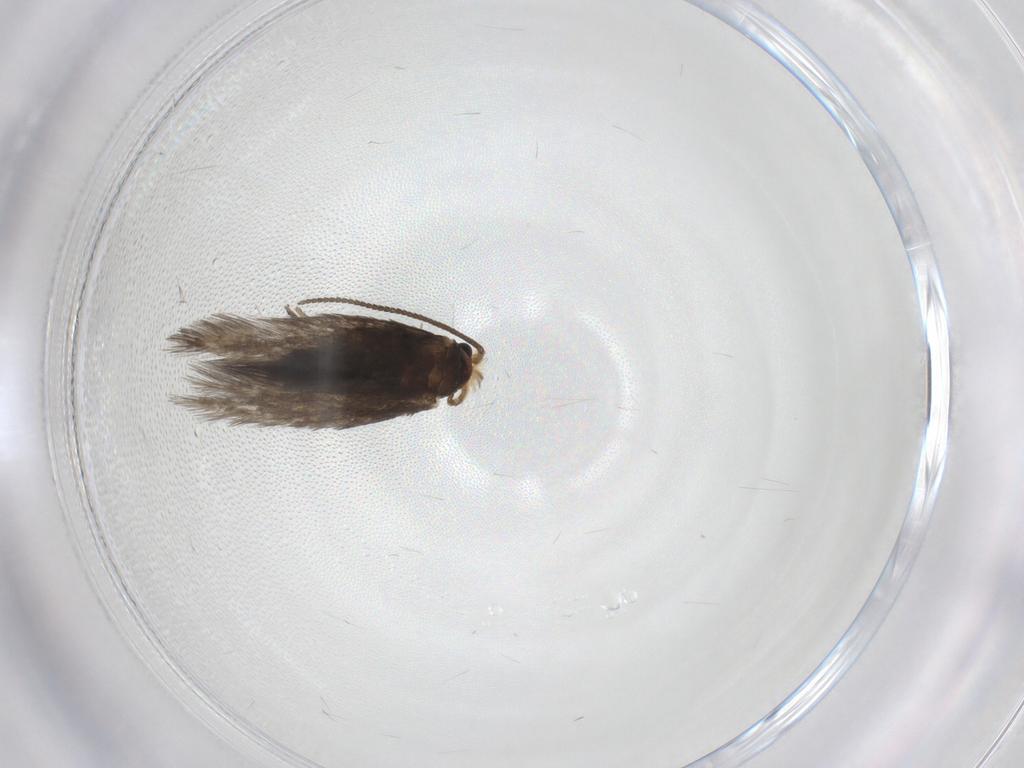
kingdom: Animalia
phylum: Arthropoda
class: Insecta
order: Lepidoptera
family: Nepticulidae
